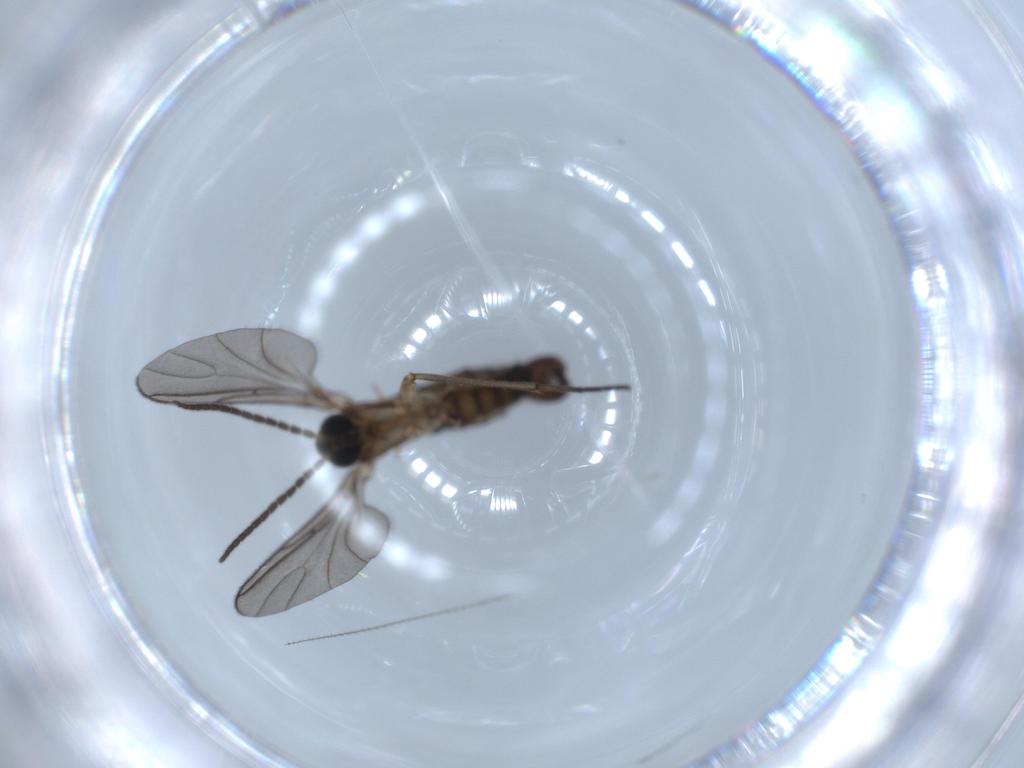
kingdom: Animalia
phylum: Arthropoda
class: Insecta
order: Diptera
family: Sciaridae
